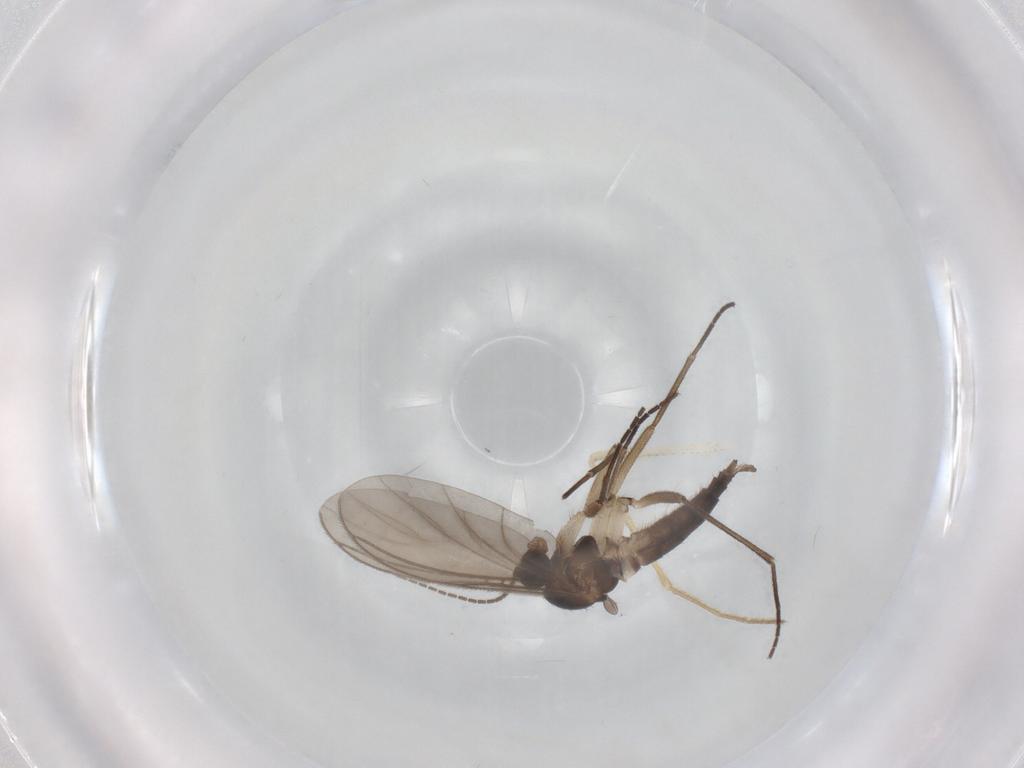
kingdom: Animalia
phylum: Arthropoda
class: Insecta
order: Diptera
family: Sciaridae
